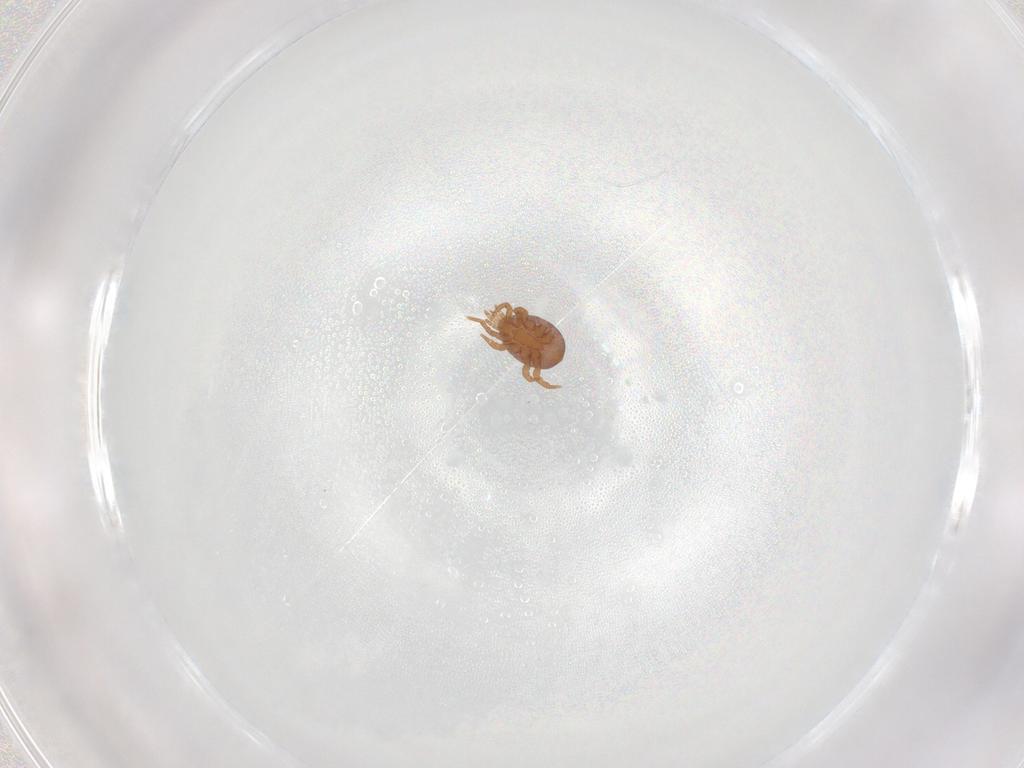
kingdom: Animalia
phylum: Arthropoda
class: Arachnida
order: Mesostigmata
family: Eviphididae
